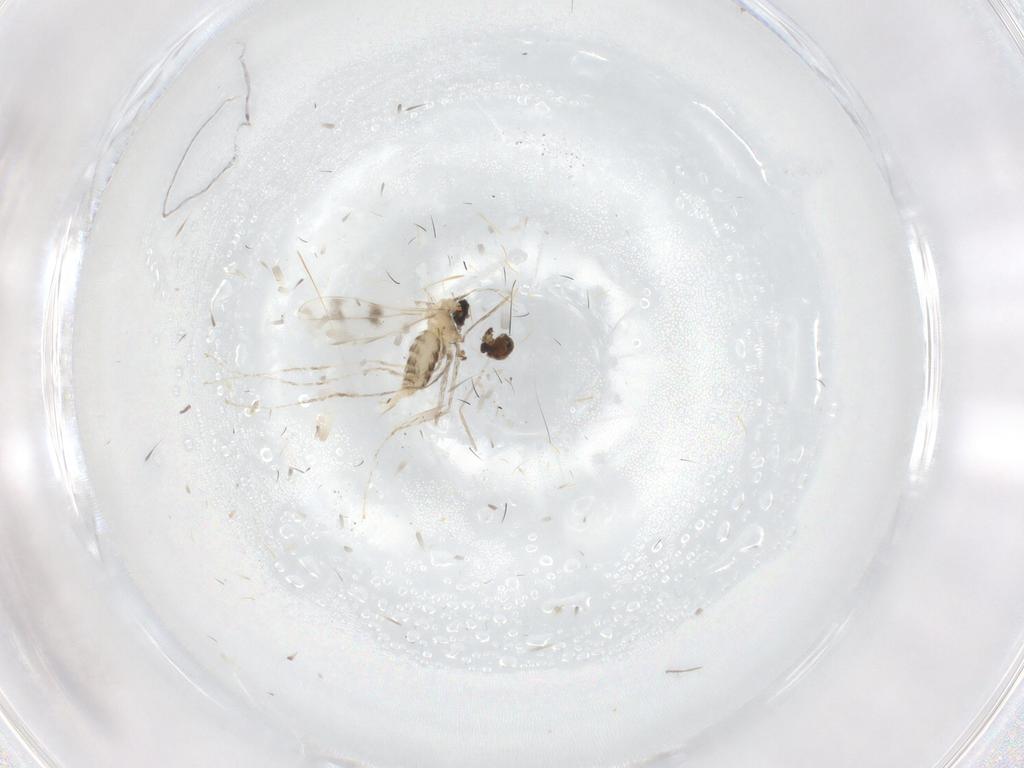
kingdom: Animalia
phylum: Arthropoda
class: Insecta
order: Diptera
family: Cecidomyiidae
